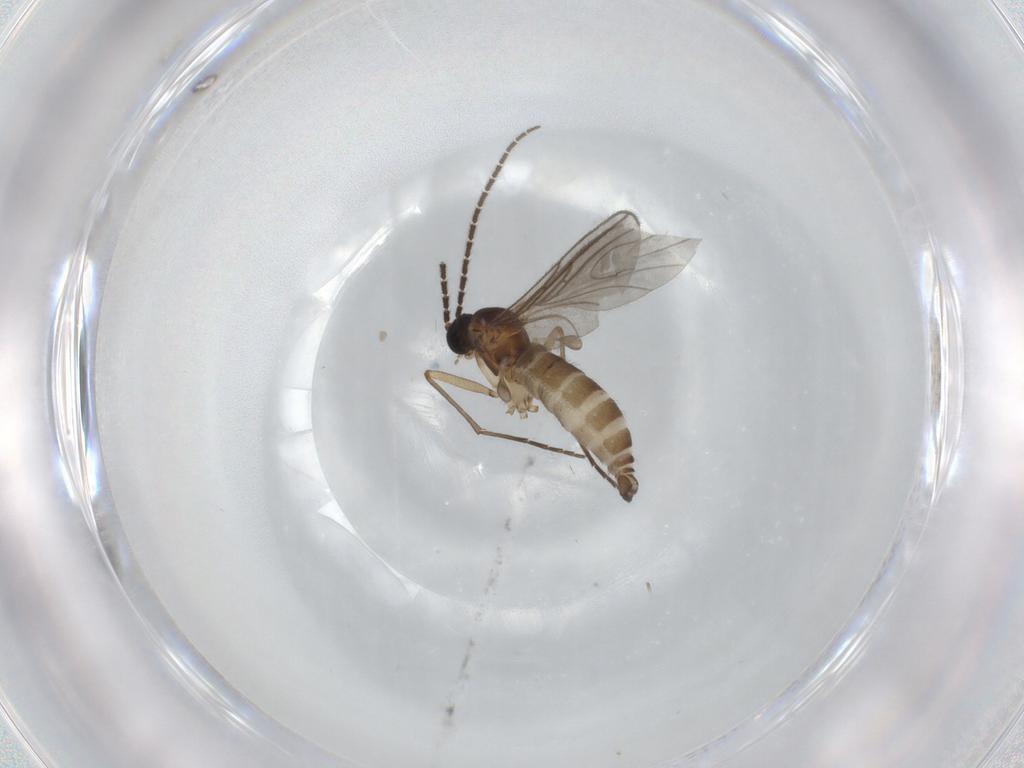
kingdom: Animalia
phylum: Arthropoda
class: Insecta
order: Diptera
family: Sciaridae
